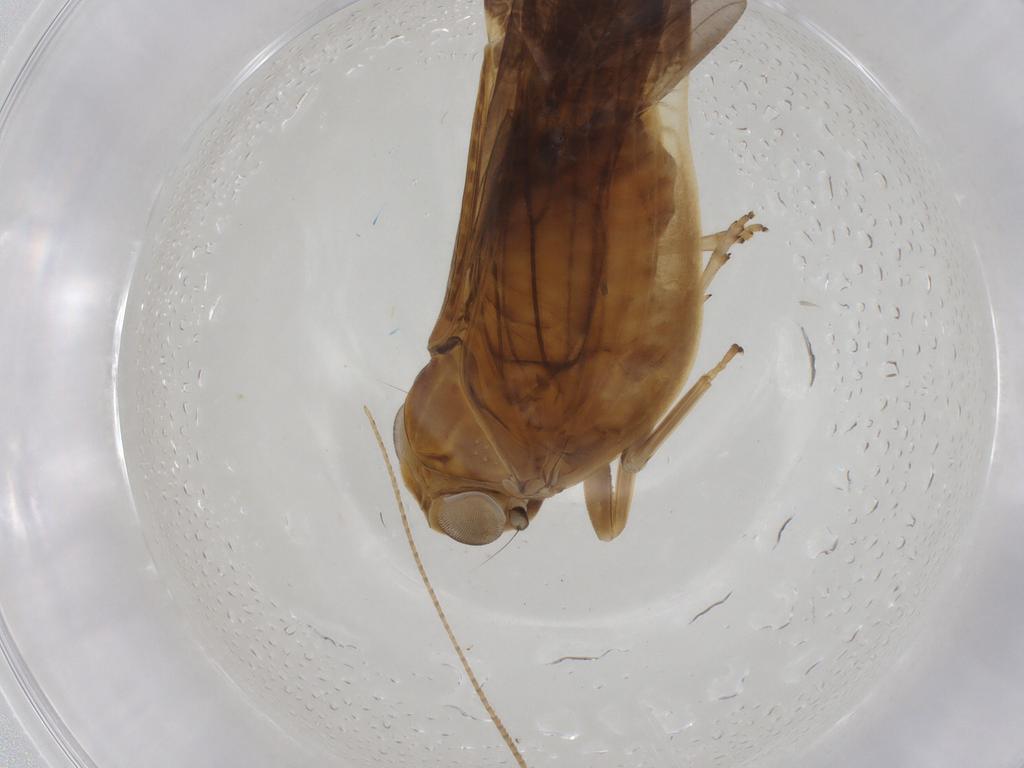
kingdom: Animalia
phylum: Arthropoda
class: Insecta
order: Hemiptera
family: Nogodinidae
